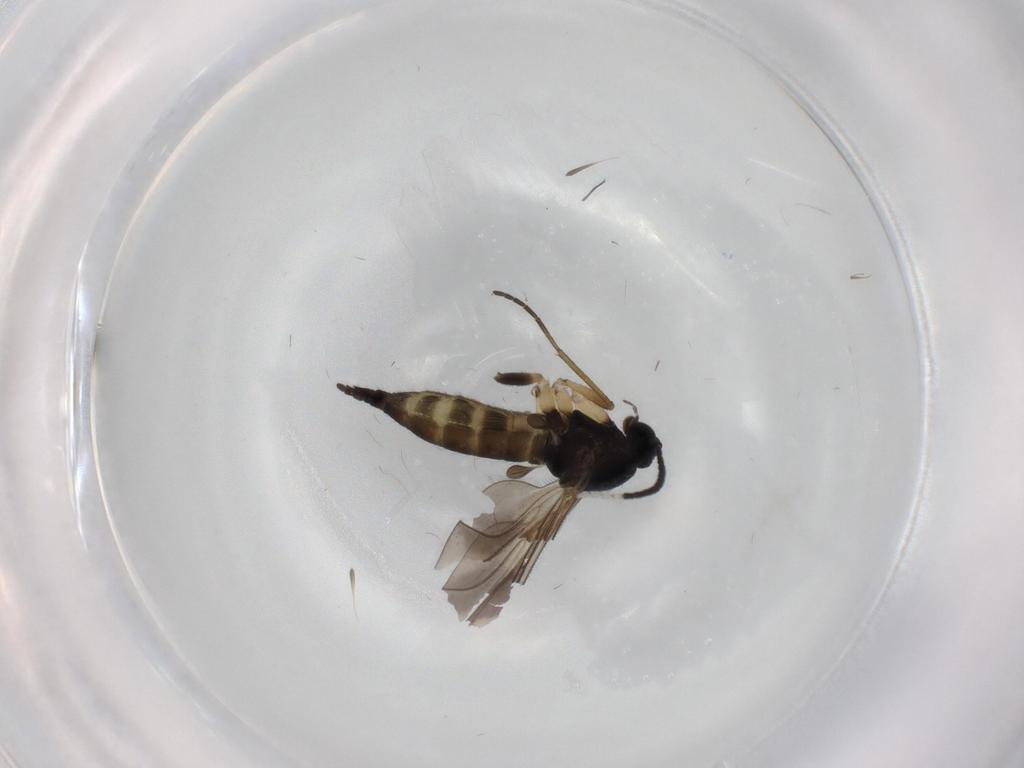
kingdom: Animalia
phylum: Arthropoda
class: Insecta
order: Diptera
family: Sciaridae
